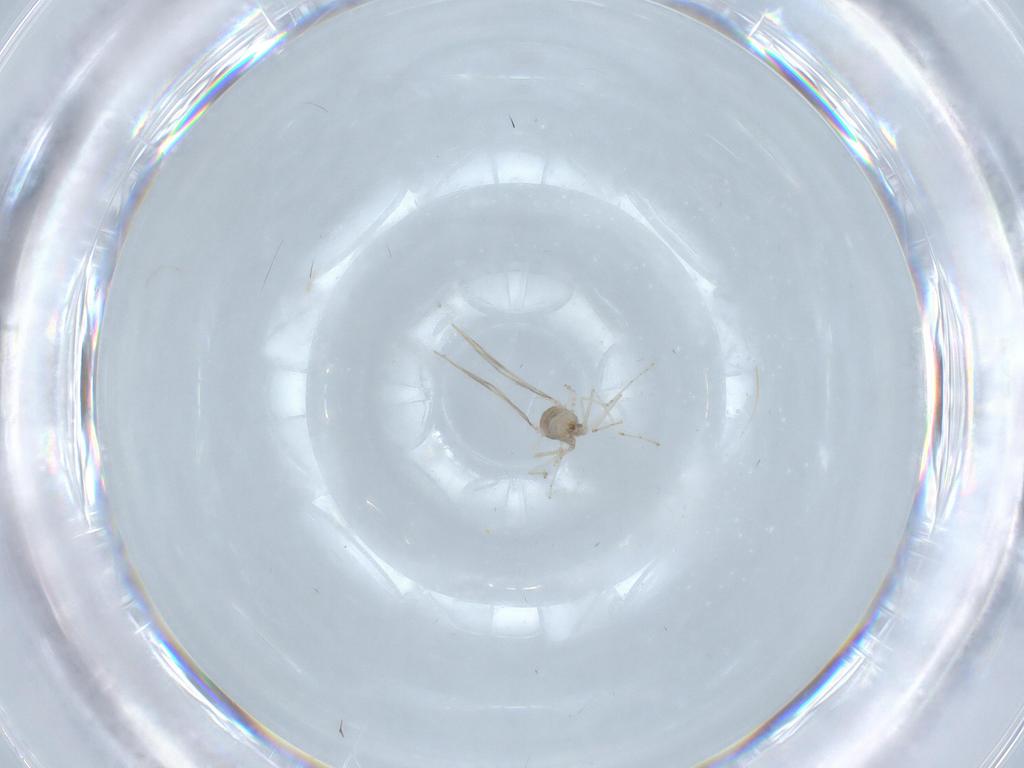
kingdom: Animalia
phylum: Arthropoda
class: Insecta
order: Diptera
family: Cecidomyiidae
